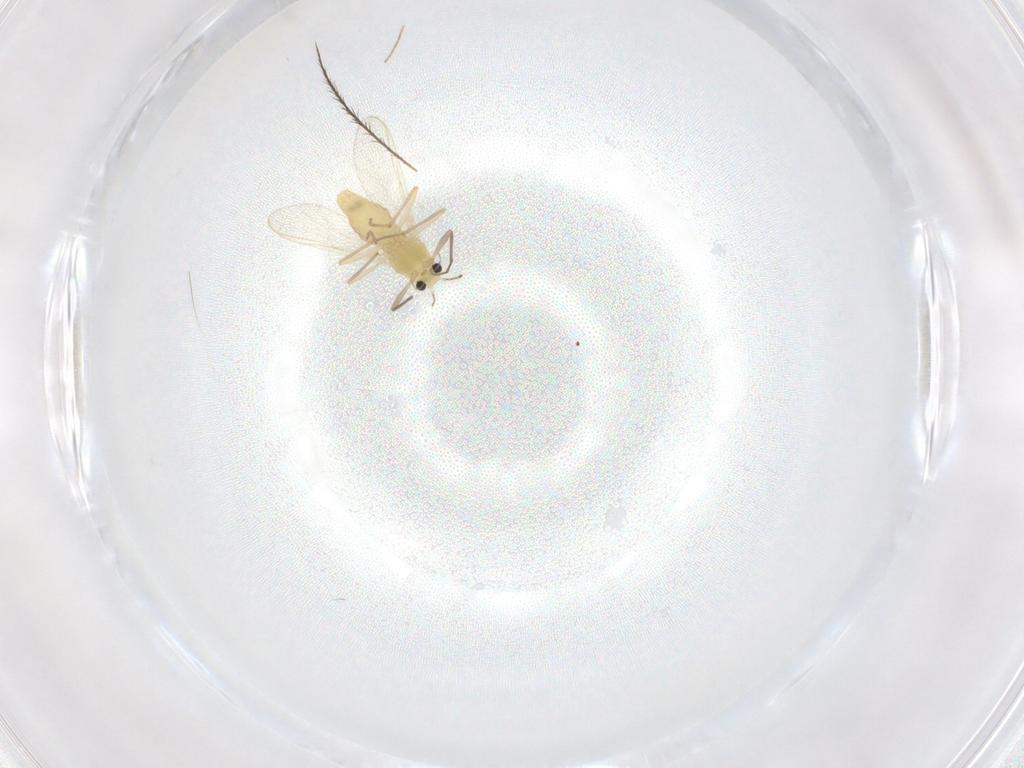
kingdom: Animalia
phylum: Arthropoda
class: Insecta
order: Diptera
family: Chironomidae
